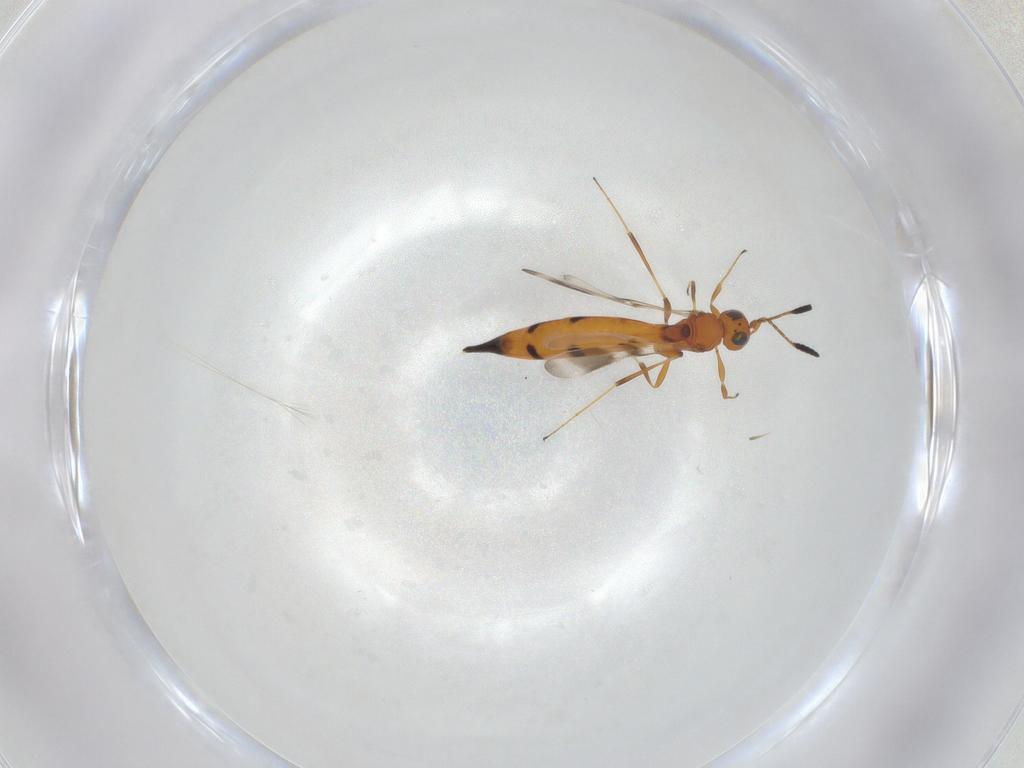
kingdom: Animalia
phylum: Arthropoda
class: Insecta
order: Hymenoptera
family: Scelionidae
